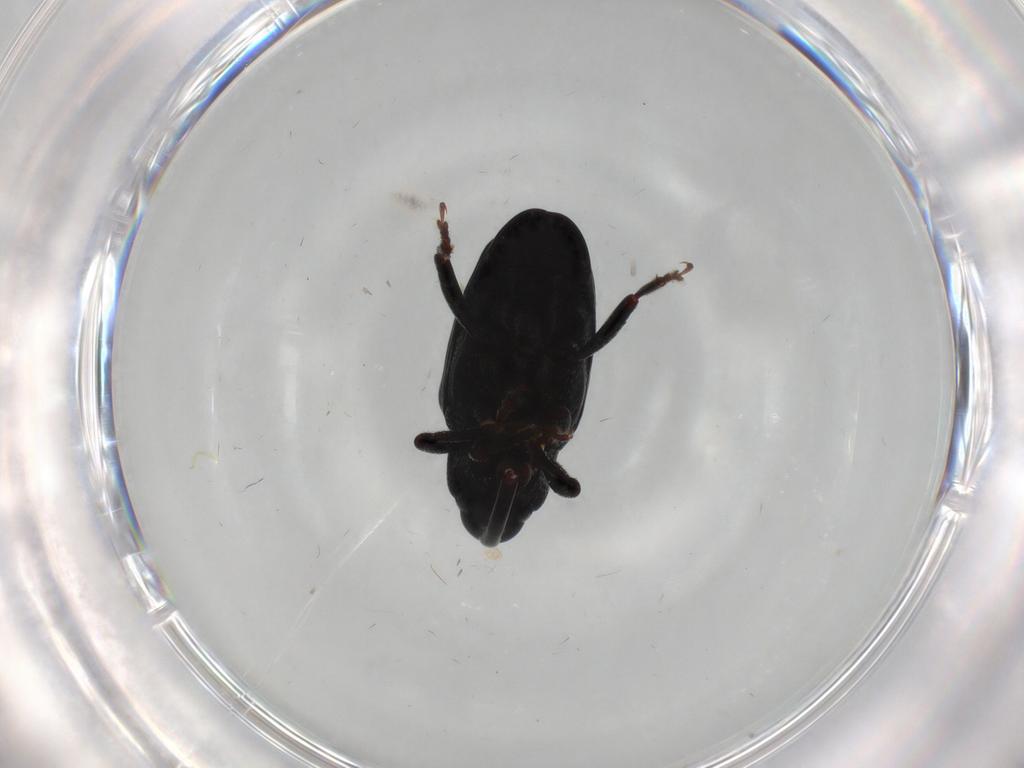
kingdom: Animalia
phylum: Arthropoda
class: Insecta
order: Coleoptera
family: Curculionidae
